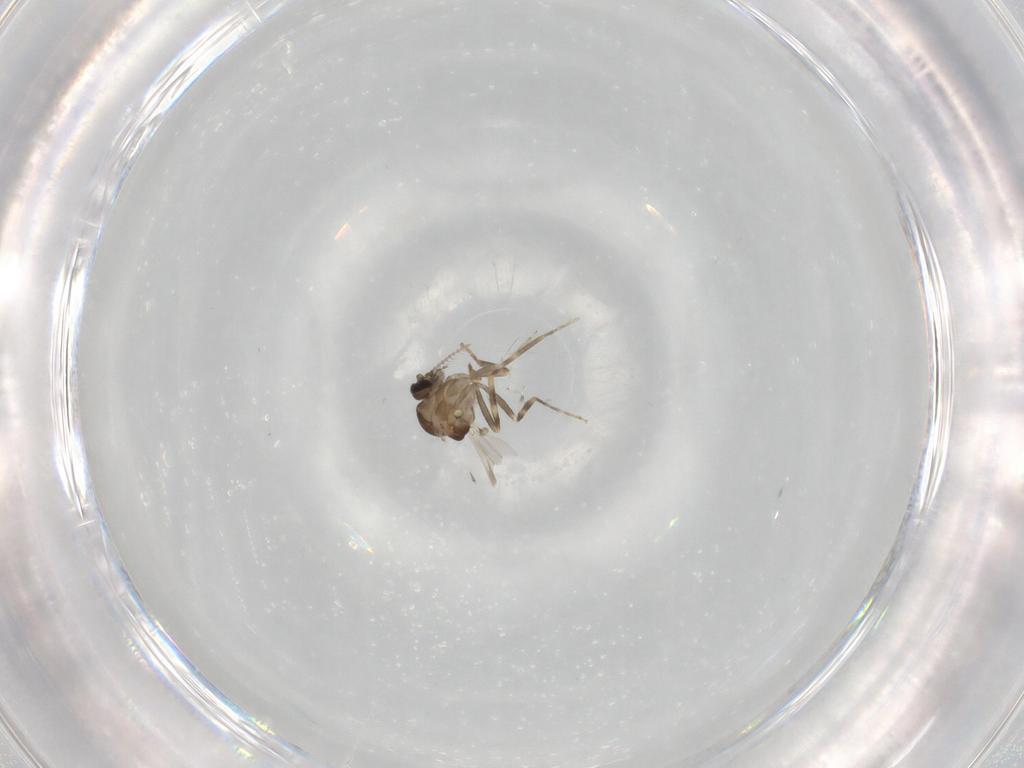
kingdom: Animalia
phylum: Arthropoda
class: Insecta
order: Diptera
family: Ceratopogonidae
